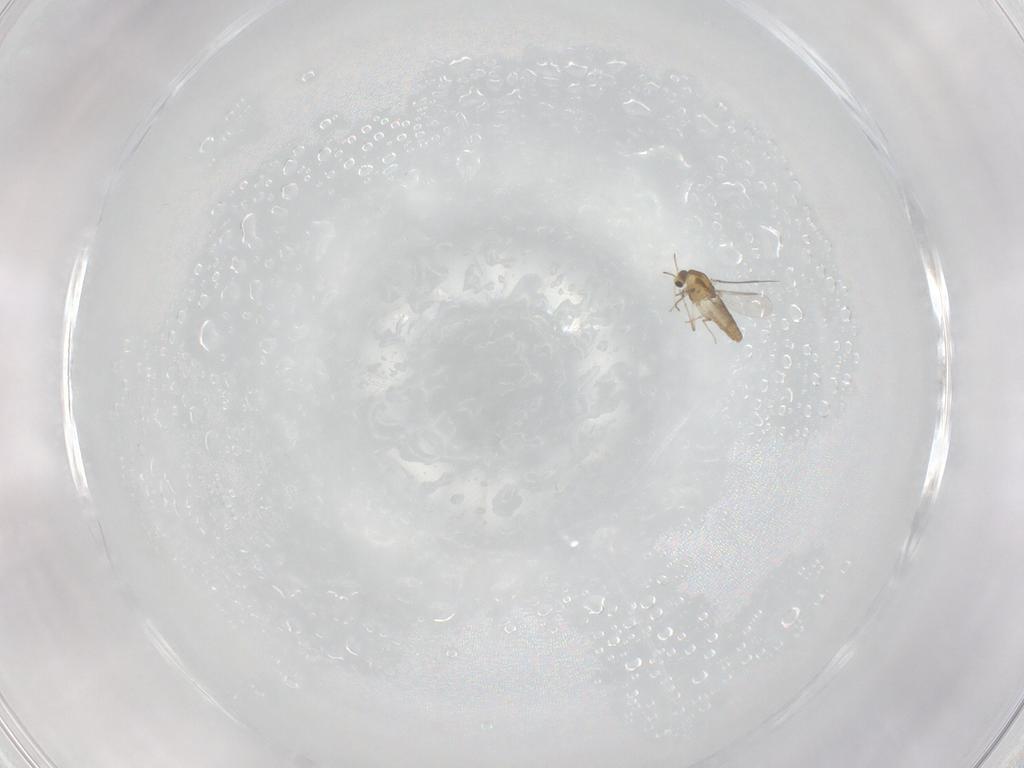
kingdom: Animalia
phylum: Arthropoda
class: Insecta
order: Diptera
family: Chironomidae
